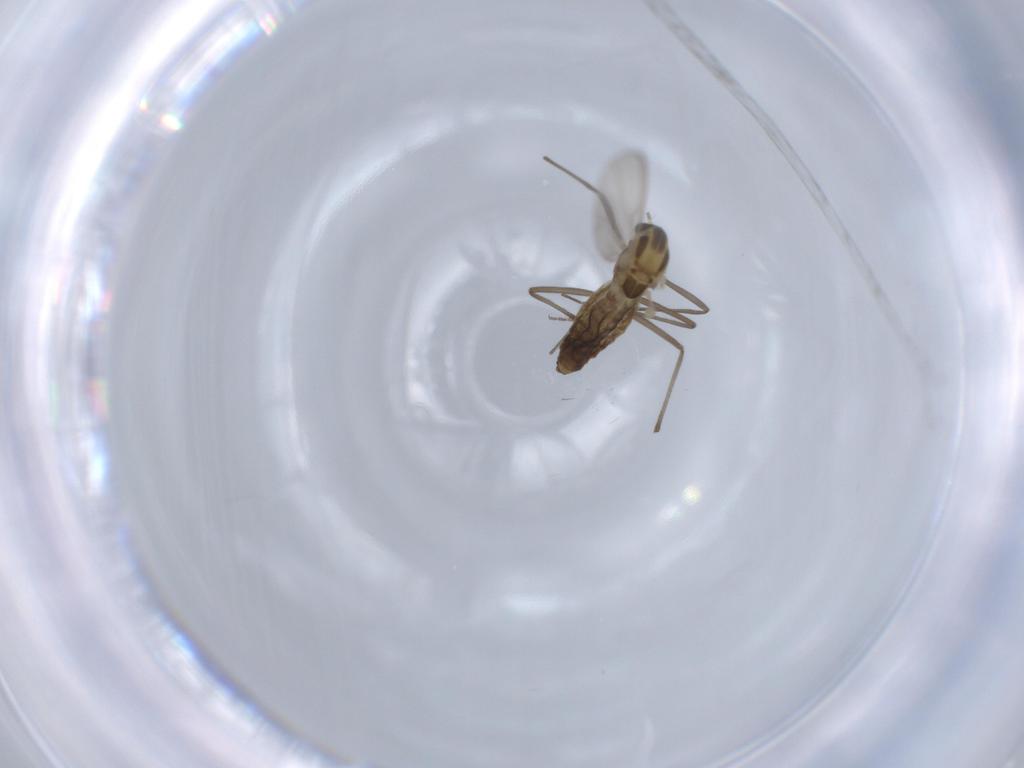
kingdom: Animalia
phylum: Arthropoda
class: Insecta
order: Diptera
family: Chironomidae
